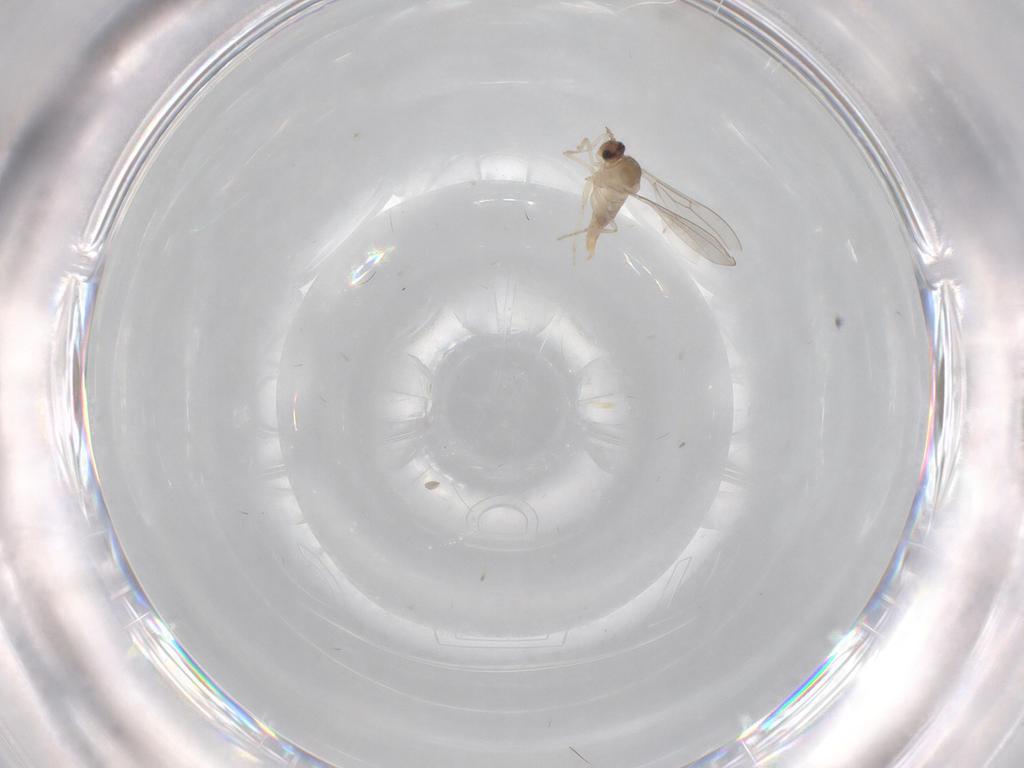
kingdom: Animalia
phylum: Arthropoda
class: Insecta
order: Diptera
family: Cecidomyiidae
